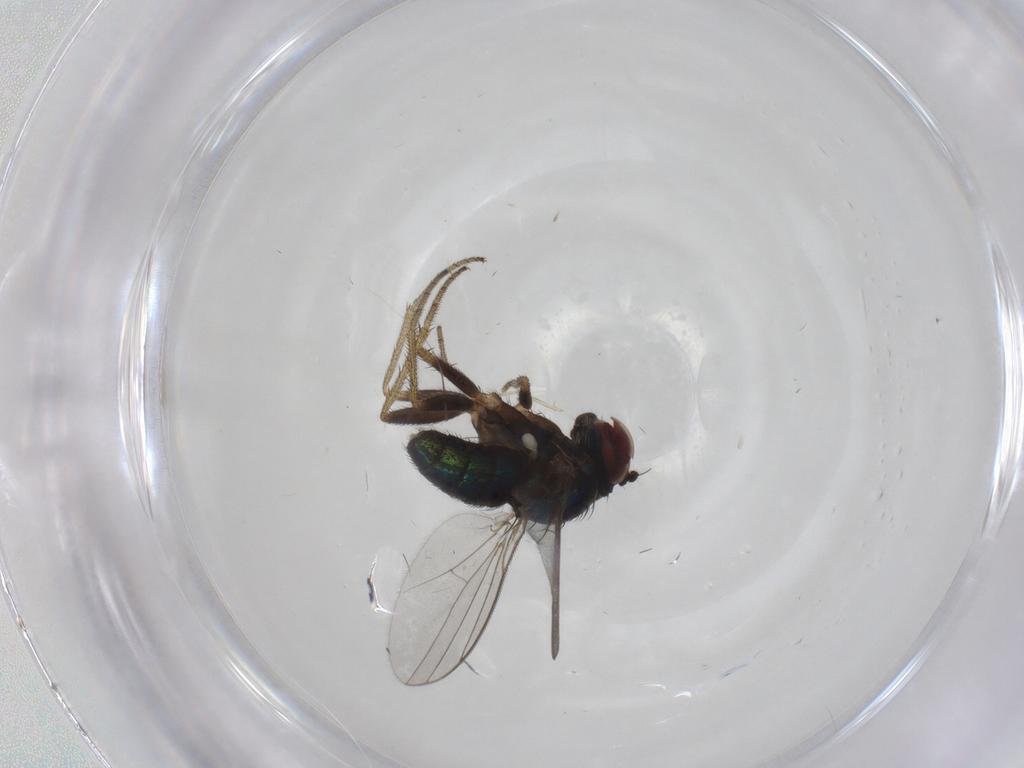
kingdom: Animalia
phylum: Arthropoda
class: Insecta
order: Diptera
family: Dolichopodidae
